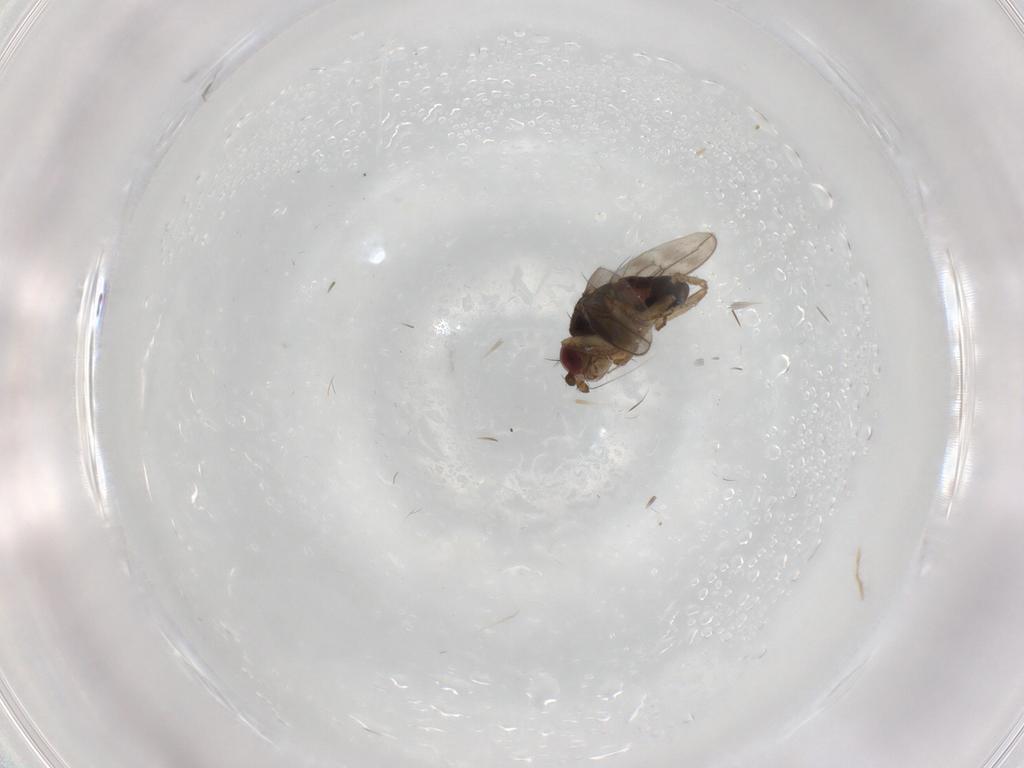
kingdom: Animalia
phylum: Arthropoda
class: Insecta
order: Diptera
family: Sphaeroceridae
